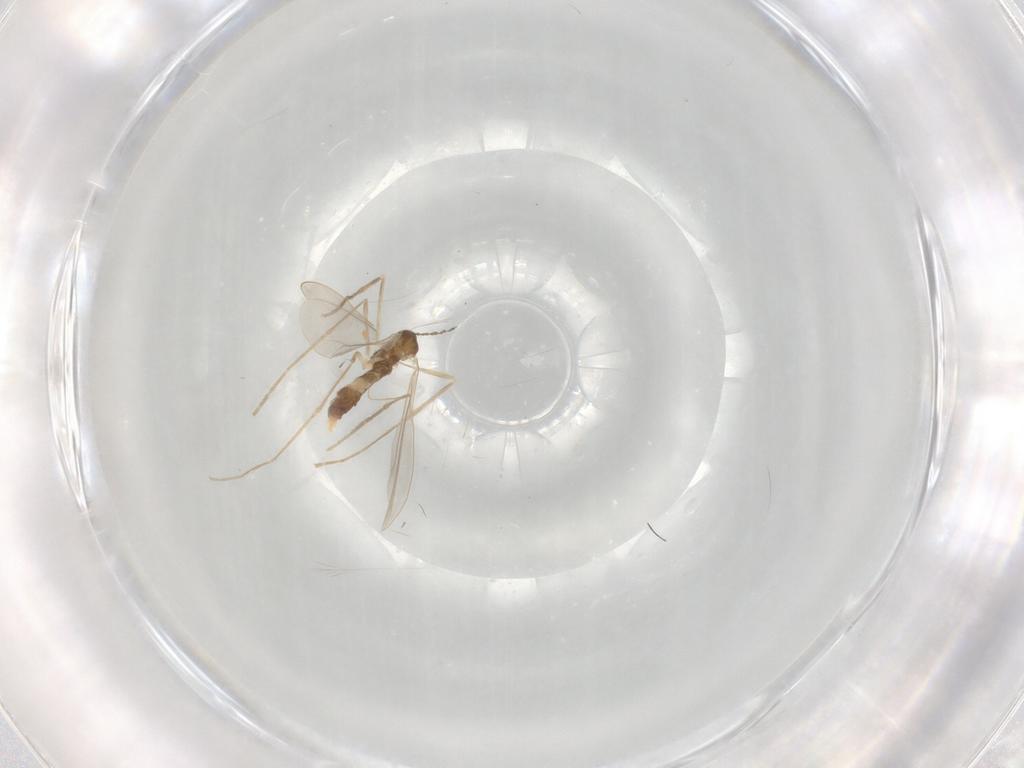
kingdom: Animalia
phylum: Arthropoda
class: Insecta
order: Diptera
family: Cecidomyiidae
